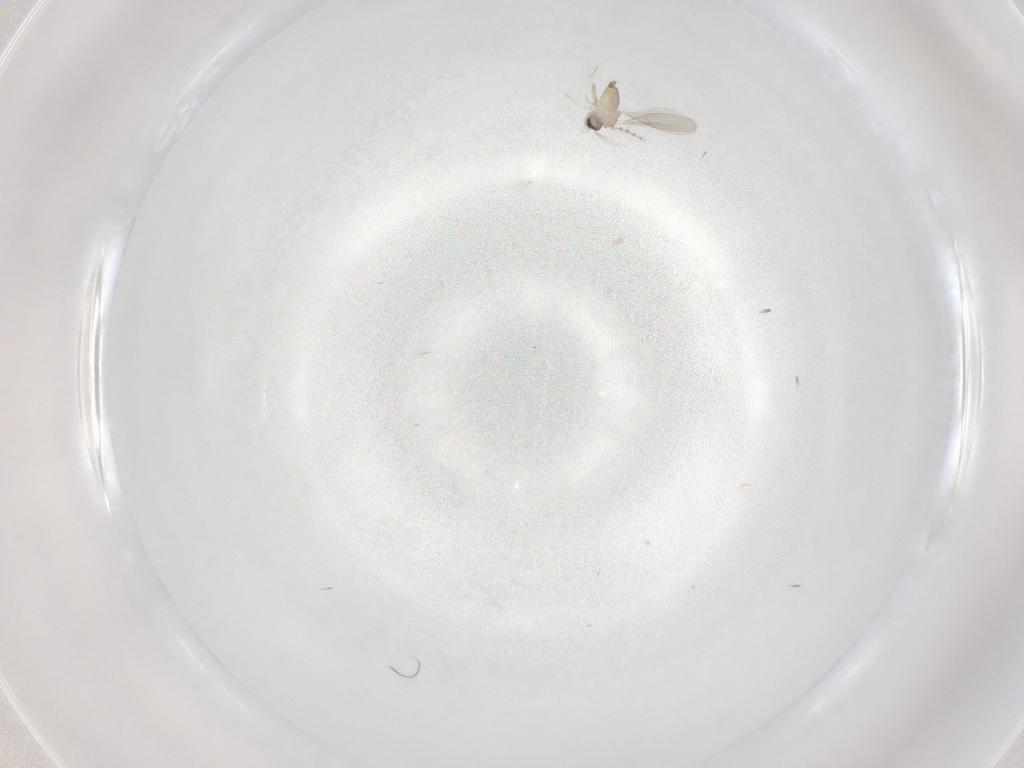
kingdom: Animalia
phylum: Arthropoda
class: Insecta
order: Diptera
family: Cecidomyiidae
